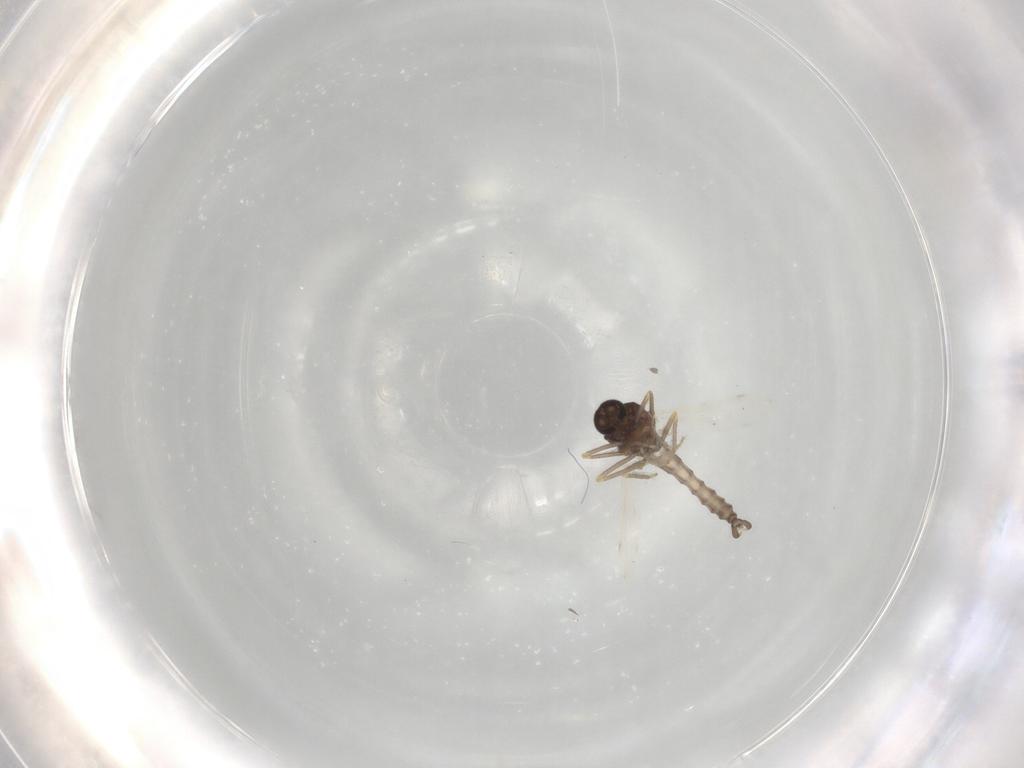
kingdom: Animalia
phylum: Arthropoda
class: Insecta
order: Diptera
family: Ceratopogonidae
